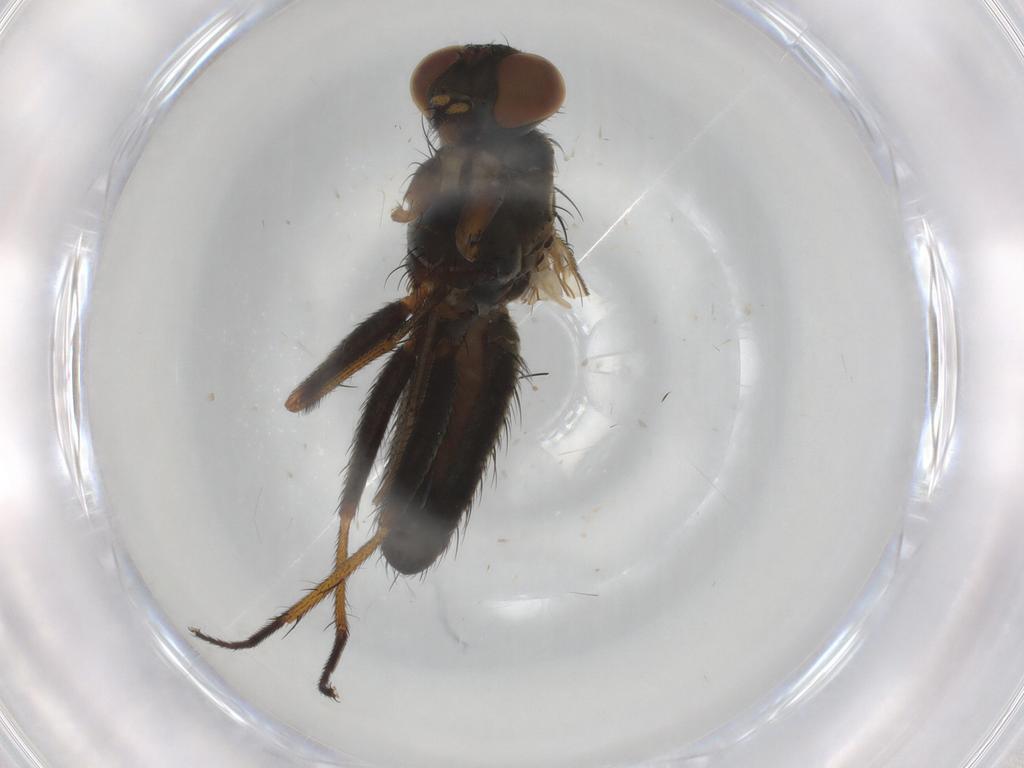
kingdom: Animalia
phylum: Arthropoda
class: Insecta
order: Diptera
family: Muscidae
